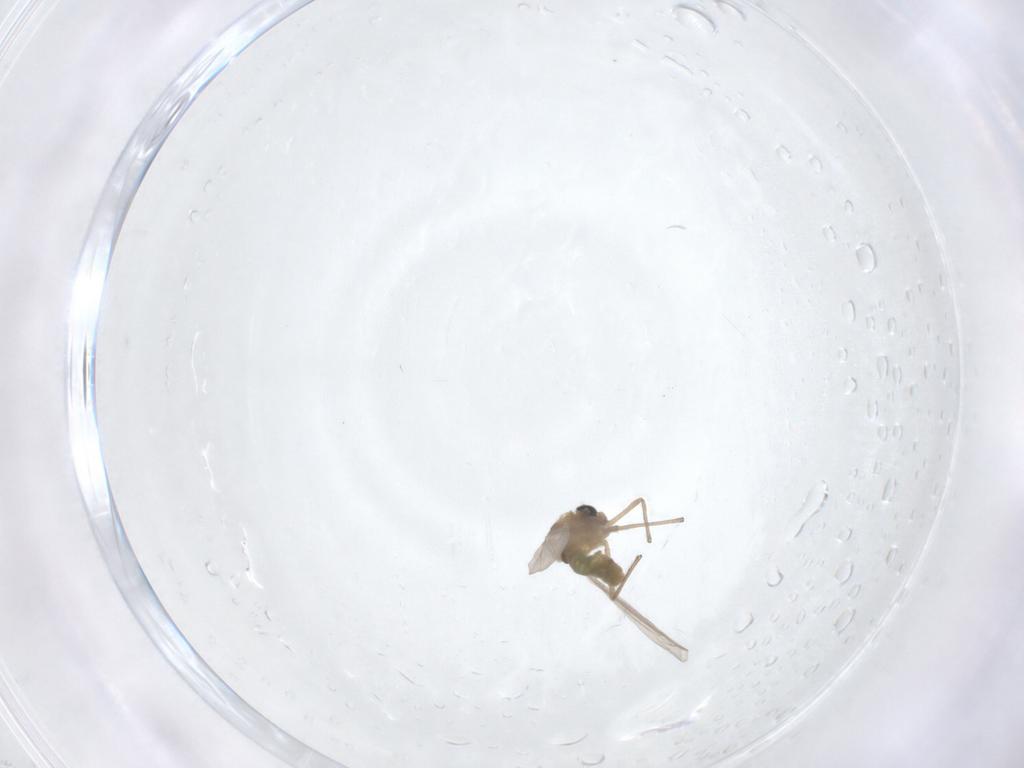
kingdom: Animalia
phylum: Arthropoda
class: Insecta
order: Diptera
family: Chironomidae
